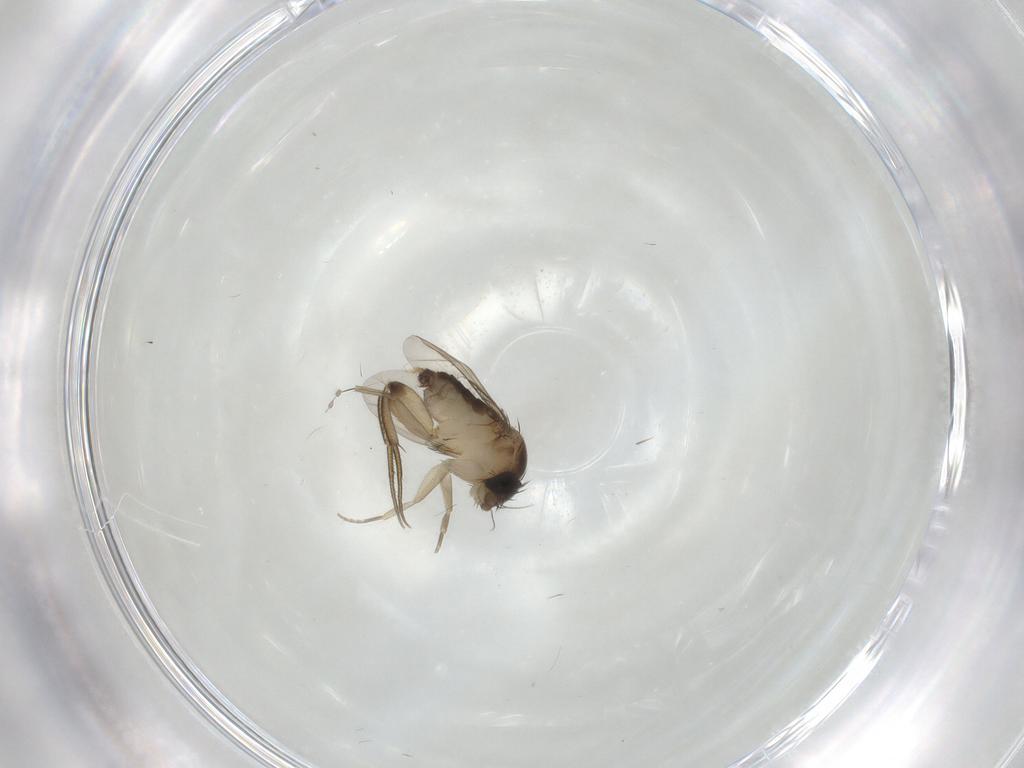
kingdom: Animalia
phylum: Arthropoda
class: Insecta
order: Diptera
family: Phoridae
